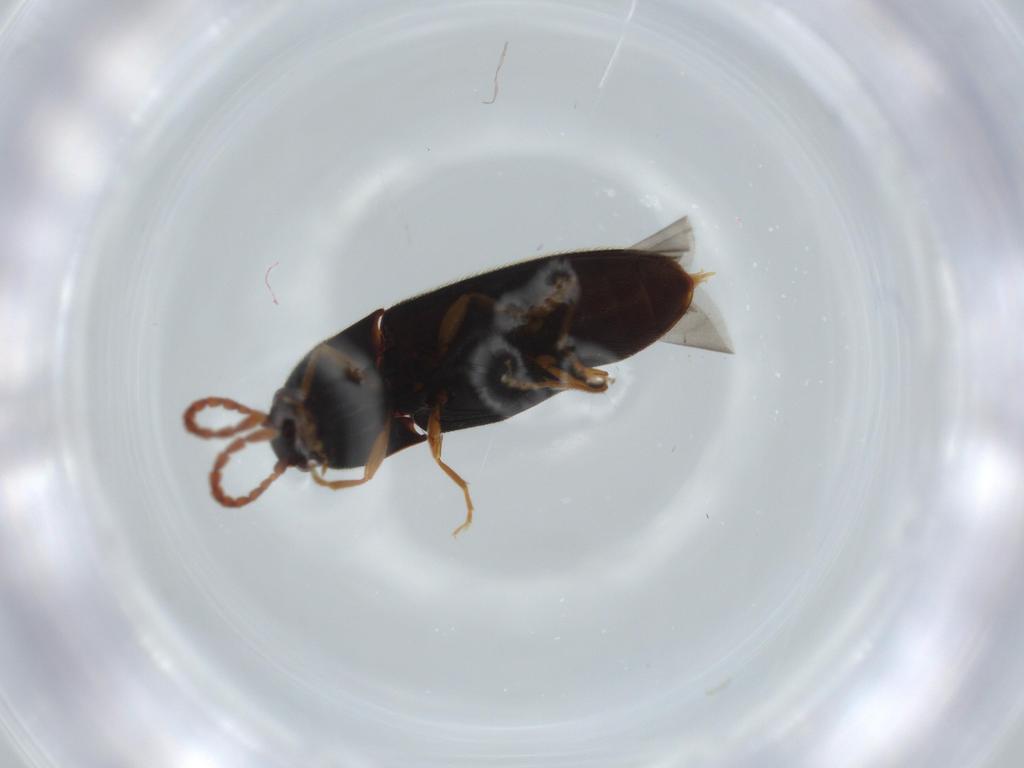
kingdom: Animalia
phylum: Arthropoda
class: Insecta
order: Coleoptera
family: Elateridae
